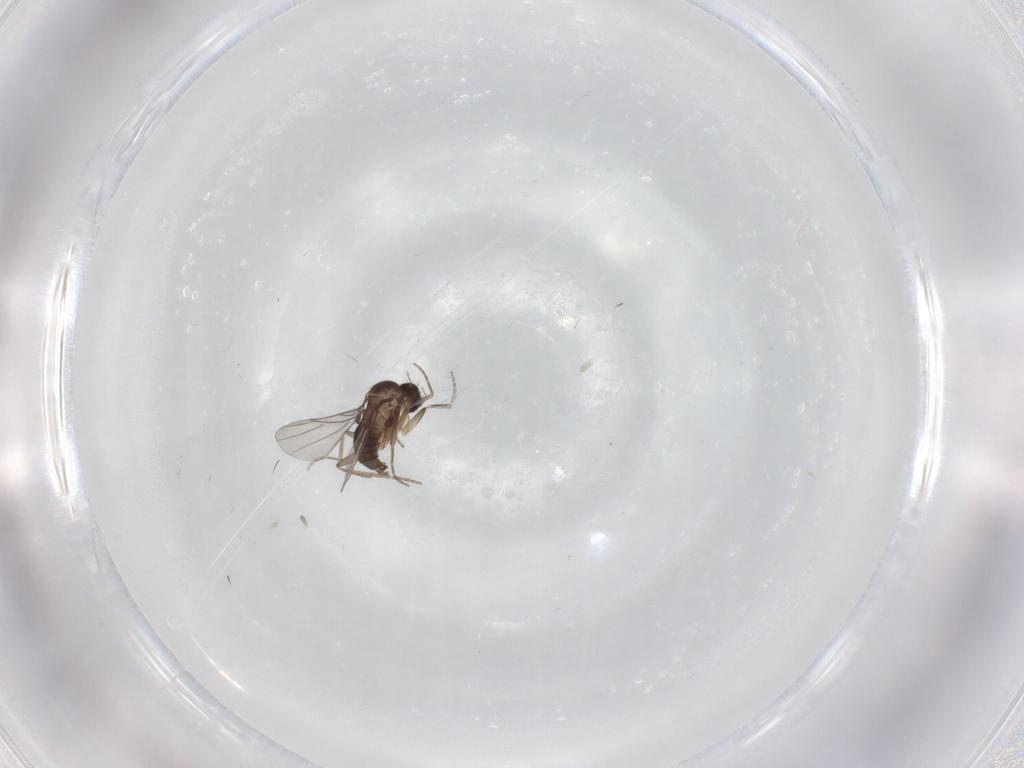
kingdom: Animalia
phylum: Arthropoda
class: Insecta
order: Diptera
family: Phoridae
